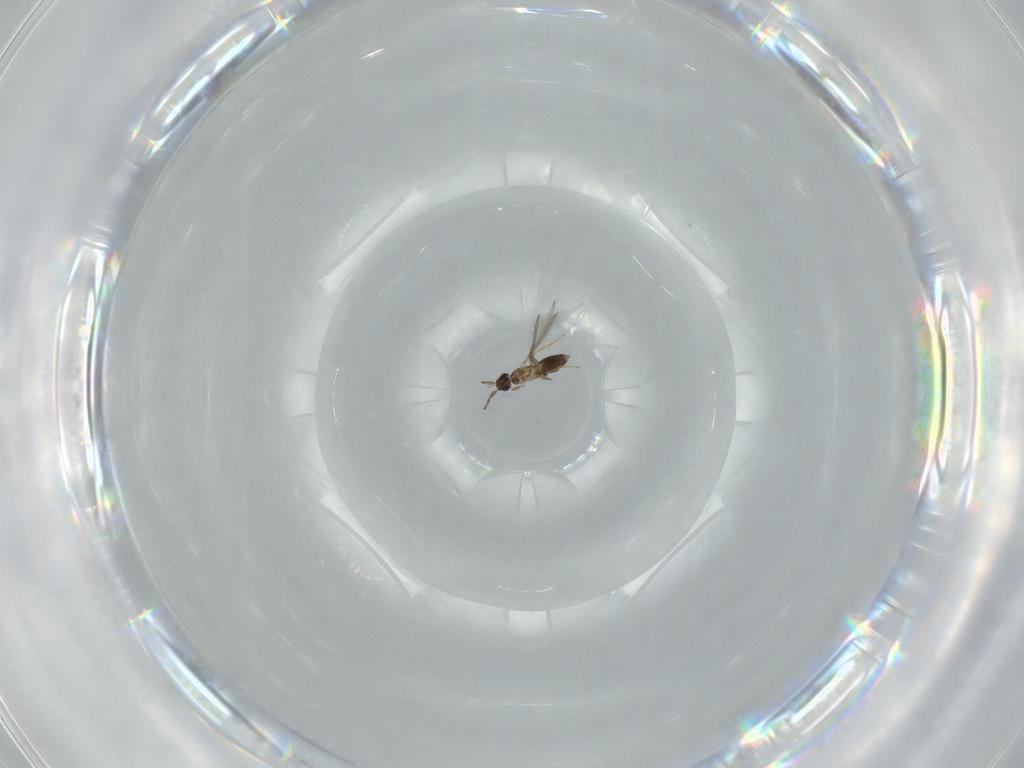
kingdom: Animalia
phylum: Arthropoda
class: Insecta
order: Hymenoptera
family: Mymaridae
